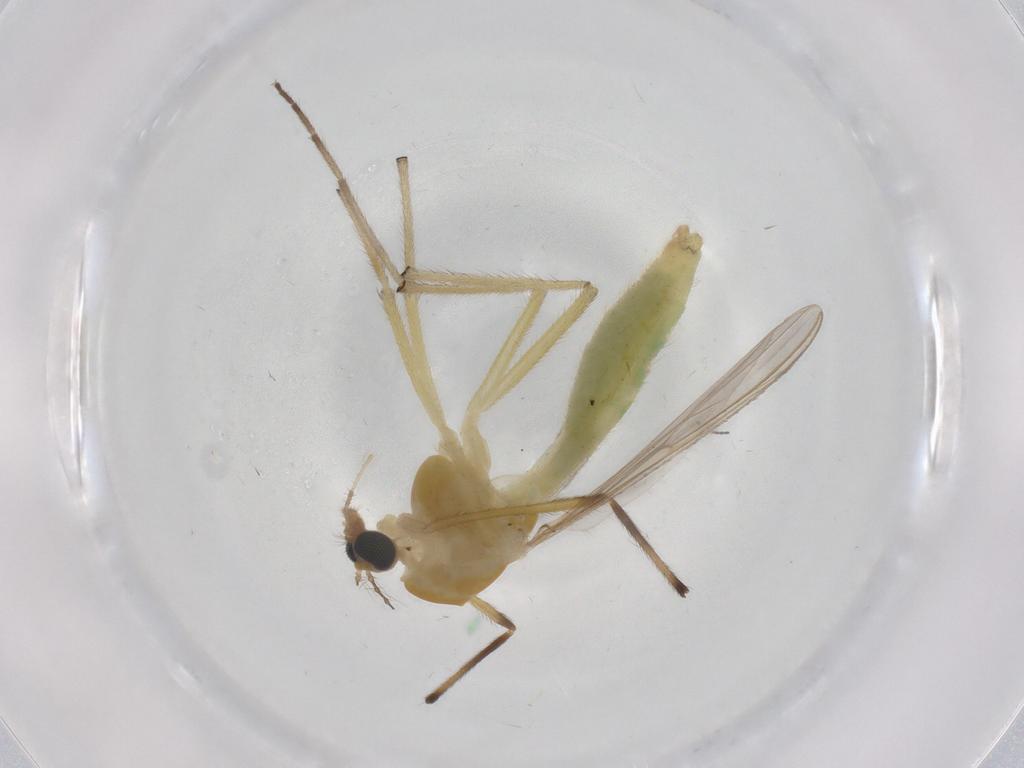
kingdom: Animalia
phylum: Arthropoda
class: Insecta
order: Diptera
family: Chironomidae
